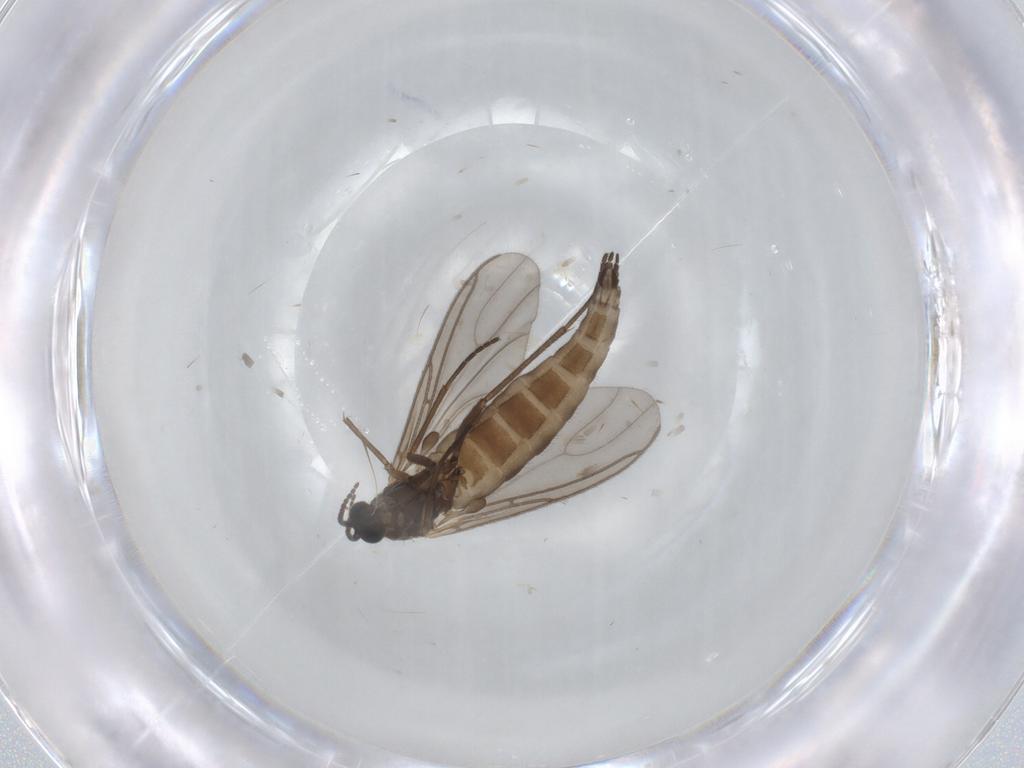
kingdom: Animalia
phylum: Arthropoda
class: Insecta
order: Diptera
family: Sciaridae
